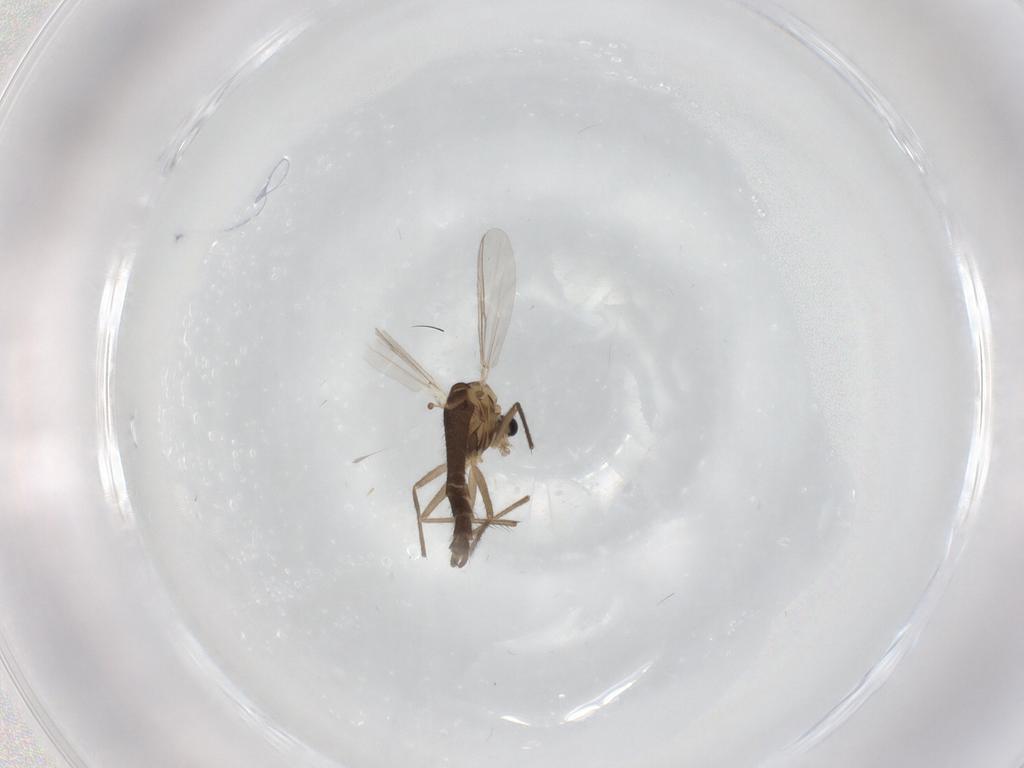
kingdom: Animalia
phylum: Arthropoda
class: Insecta
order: Diptera
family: Chironomidae
